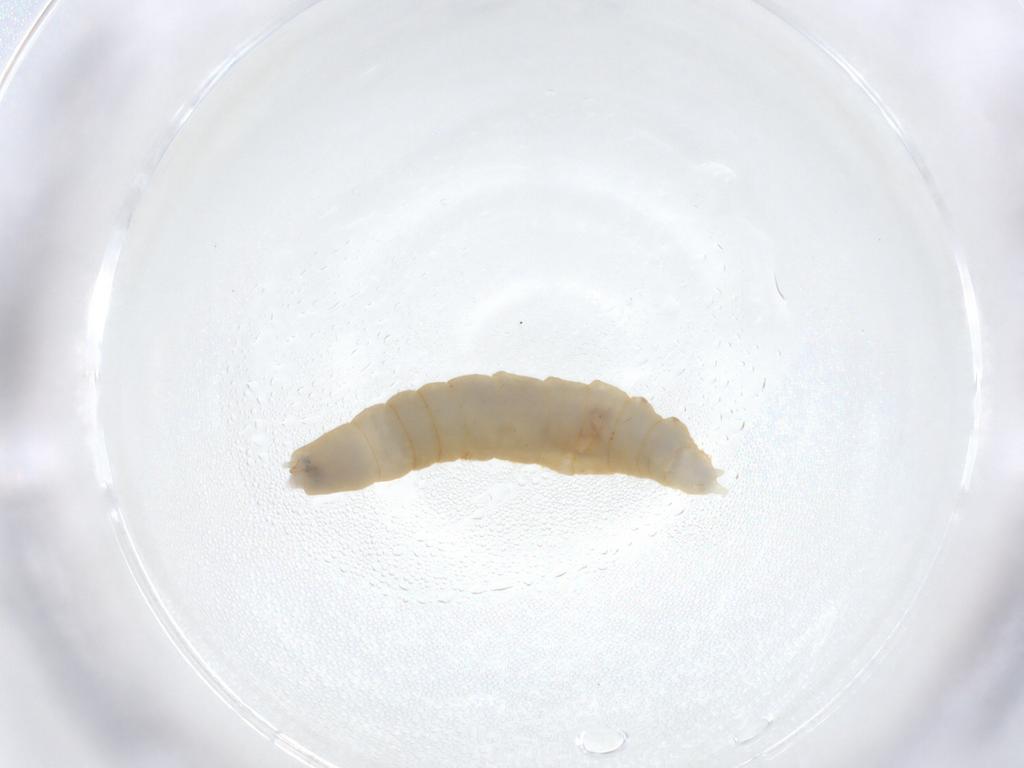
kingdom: Animalia
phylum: Arthropoda
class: Insecta
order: Diptera
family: Pediciidae
